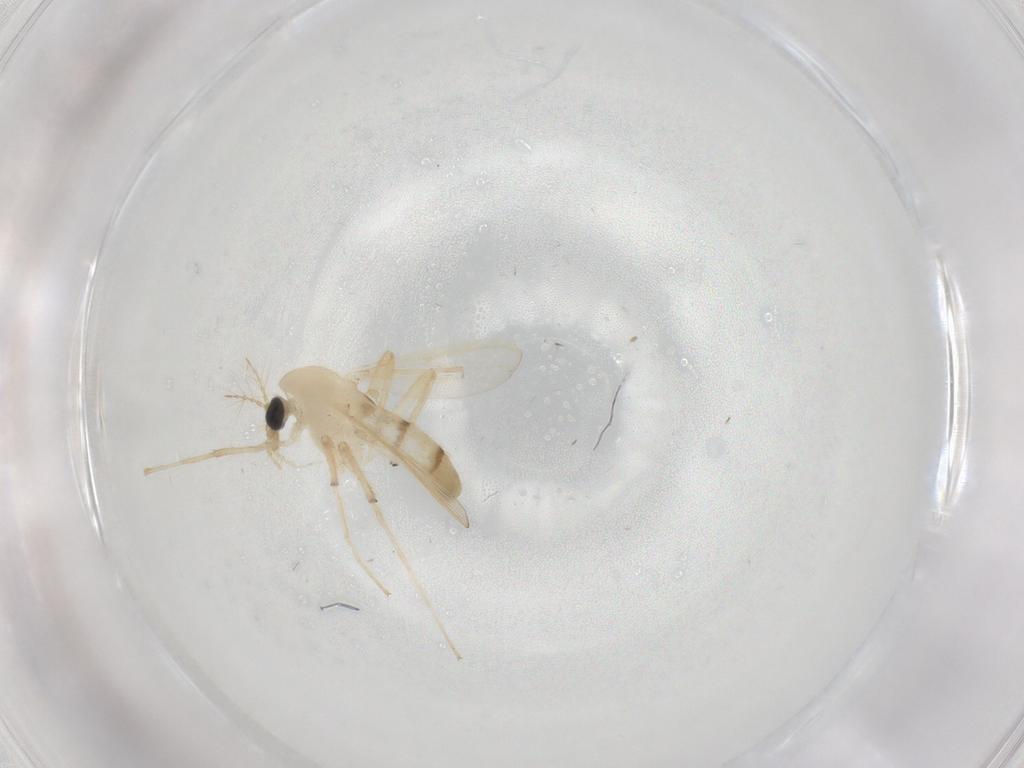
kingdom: Animalia
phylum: Arthropoda
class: Insecta
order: Diptera
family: Chironomidae
